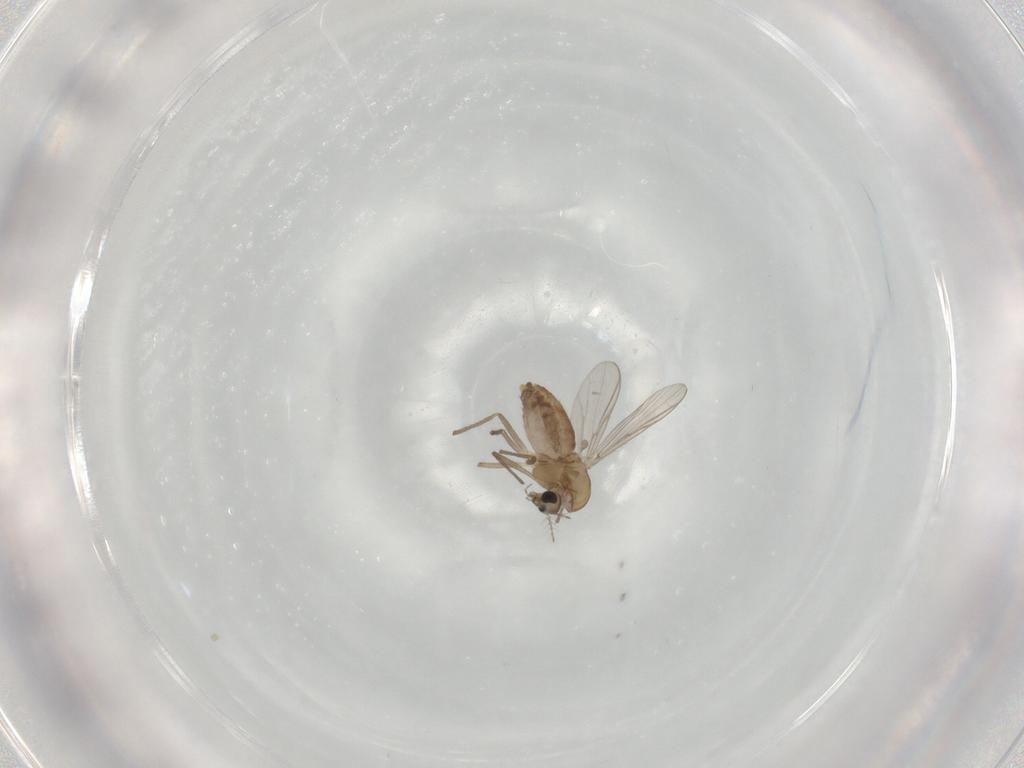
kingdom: Animalia
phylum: Arthropoda
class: Insecta
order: Diptera
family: Chironomidae
